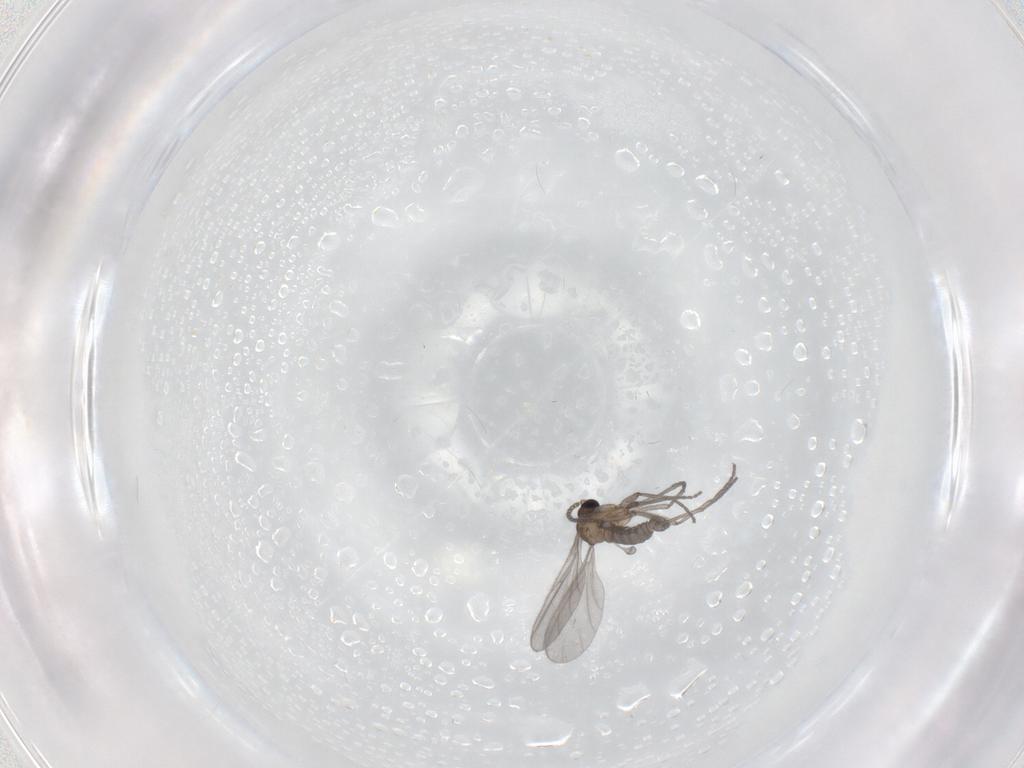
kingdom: Animalia
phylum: Arthropoda
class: Insecta
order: Diptera
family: Sciaridae
